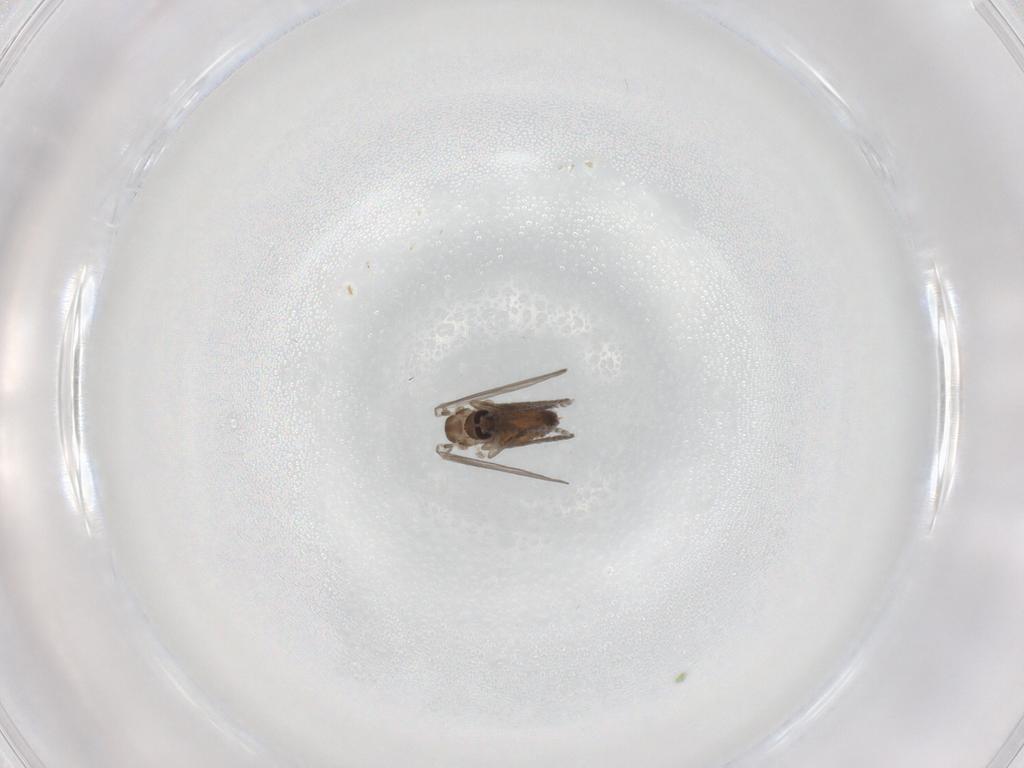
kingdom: Animalia
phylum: Arthropoda
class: Insecta
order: Diptera
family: Psychodidae
